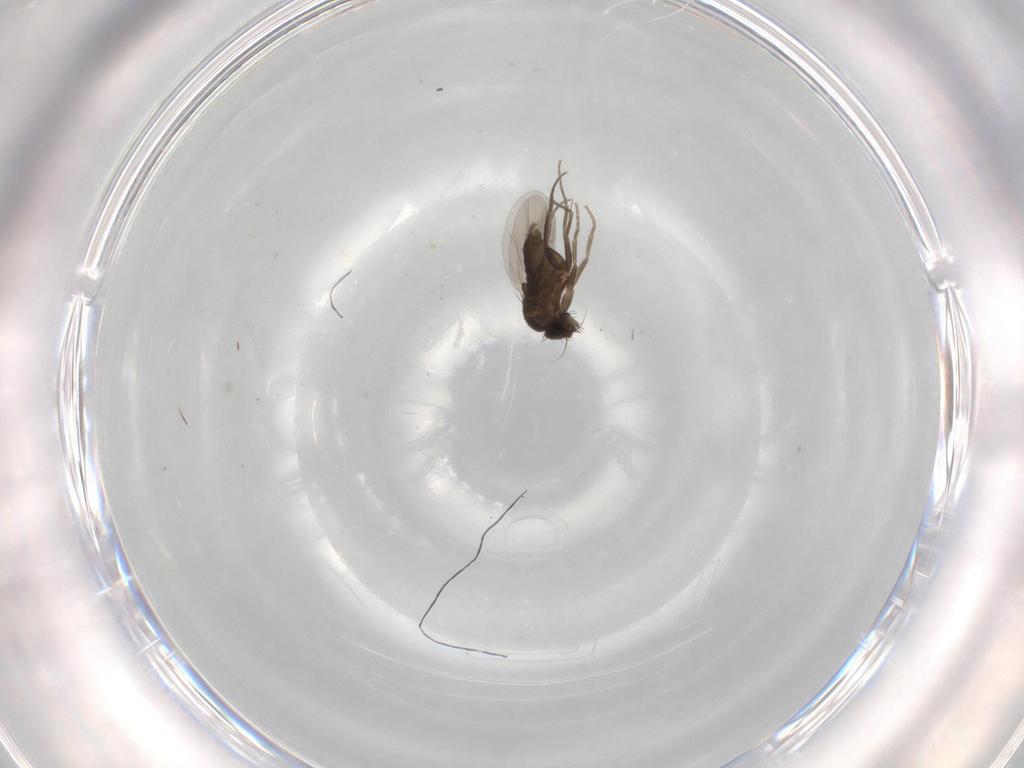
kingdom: Animalia
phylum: Arthropoda
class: Insecta
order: Diptera
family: Phoridae
